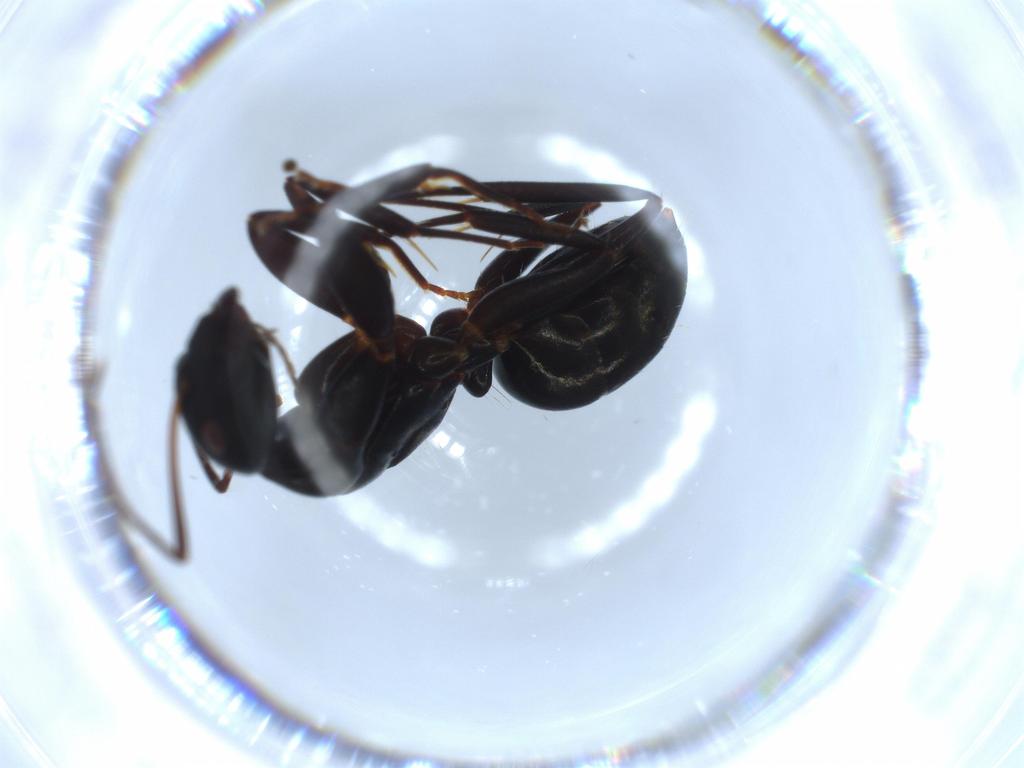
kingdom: Animalia
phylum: Arthropoda
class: Insecta
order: Hymenoptera
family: Formicidae
